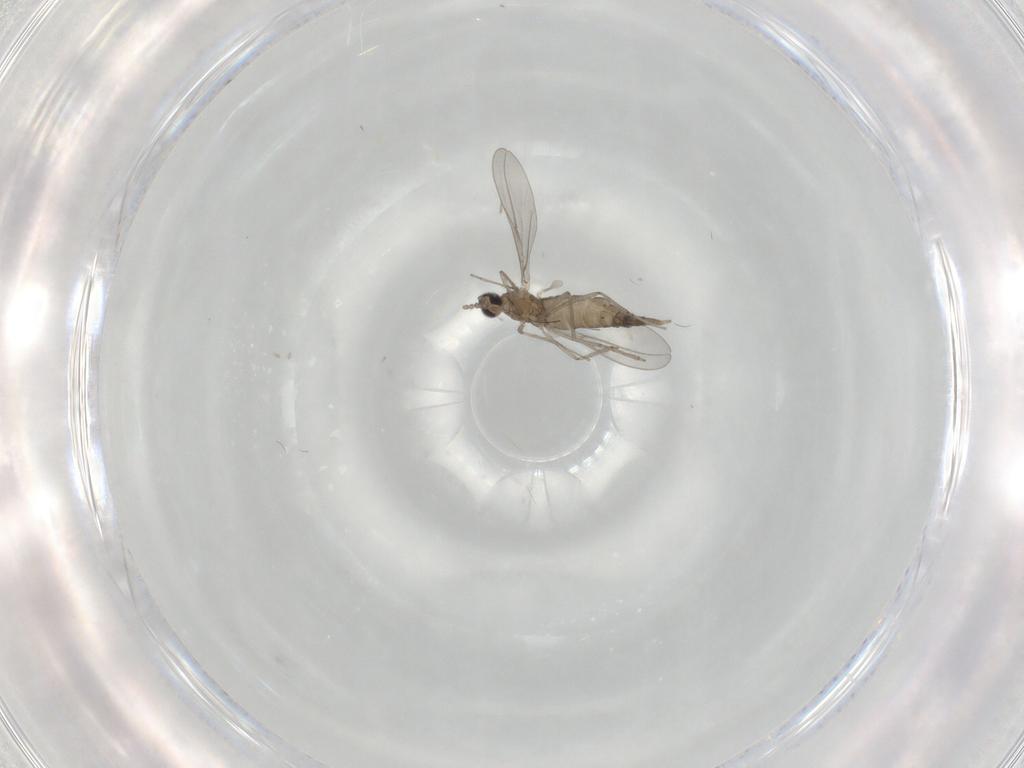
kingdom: Animalia
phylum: Arthropoda
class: Insecta
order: Diptera
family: Cecidomyiidae
